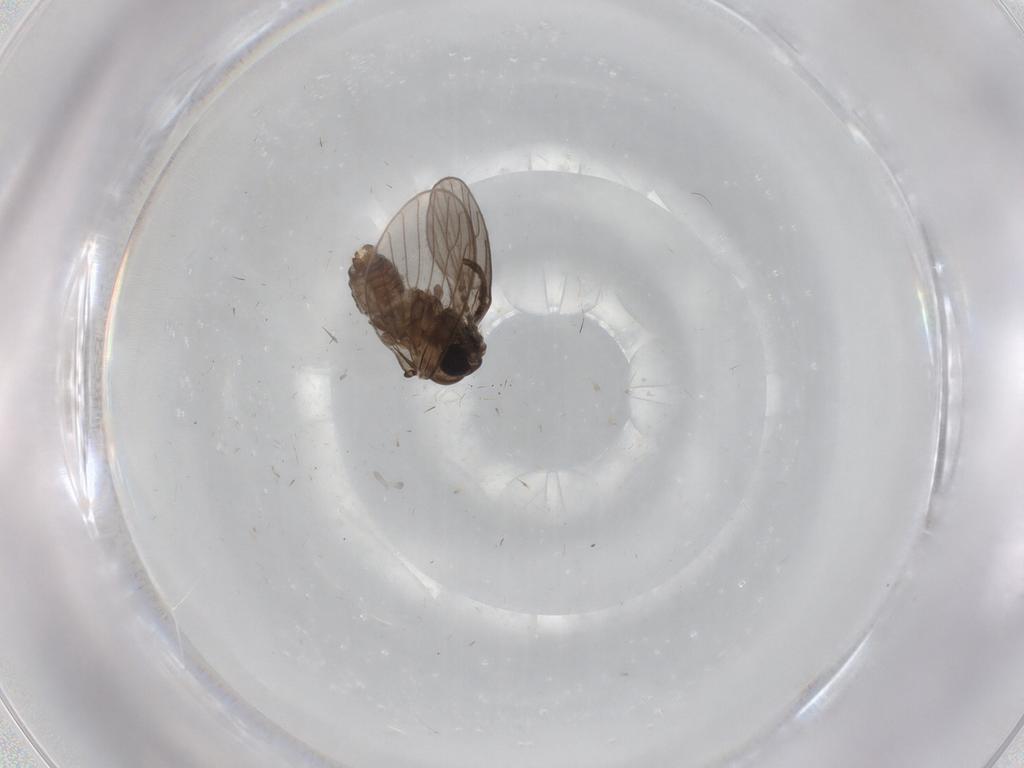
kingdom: Animalia
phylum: Arthropoda
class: Insecta
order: Diptera
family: Cecidomyiidae
